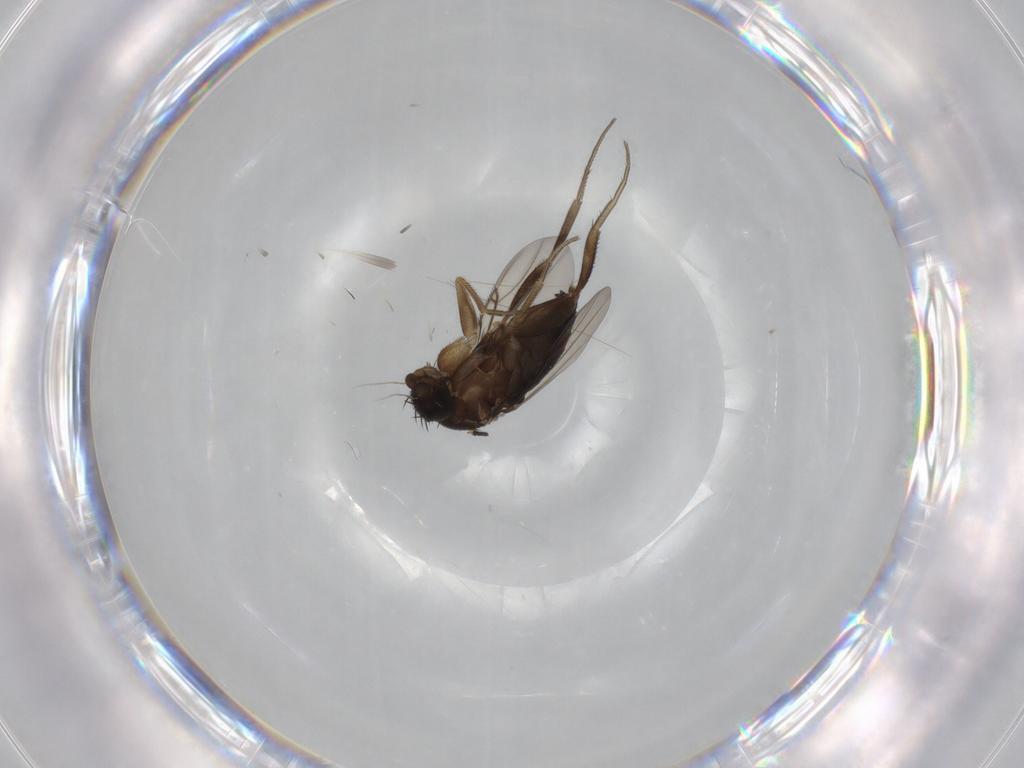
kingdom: Animalia
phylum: Arthropoda
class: Insecta
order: Diptera
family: Phoridae
